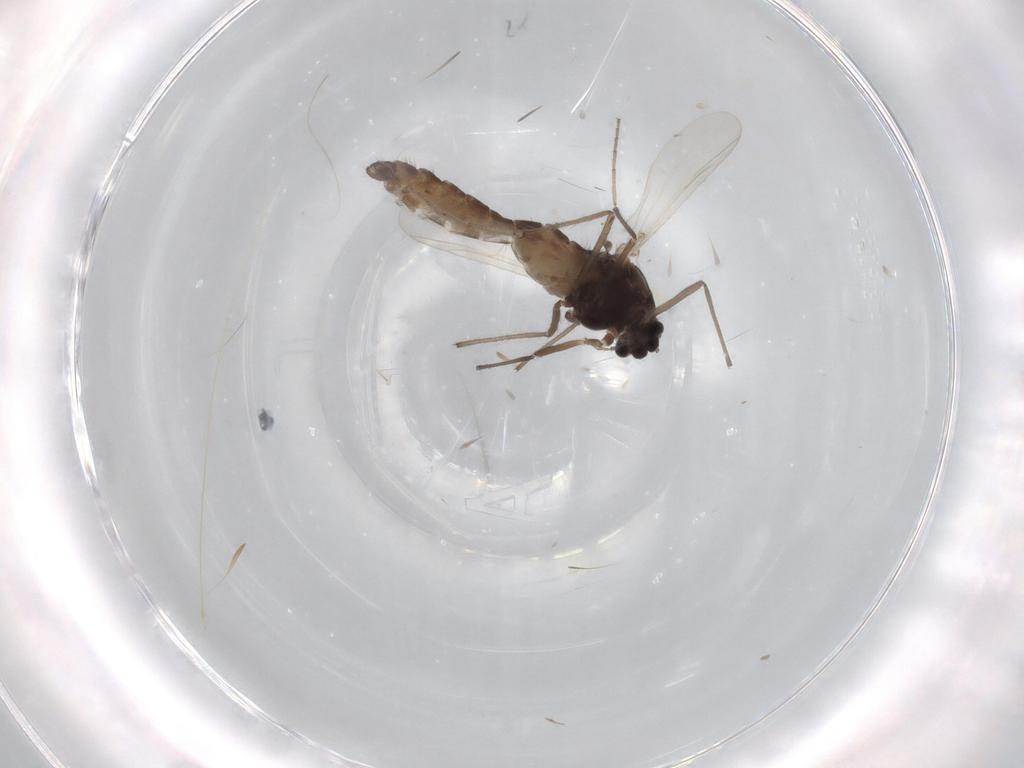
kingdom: Animalia
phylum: Arthropoda
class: Insecta
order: Diptera
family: Chironomidae
